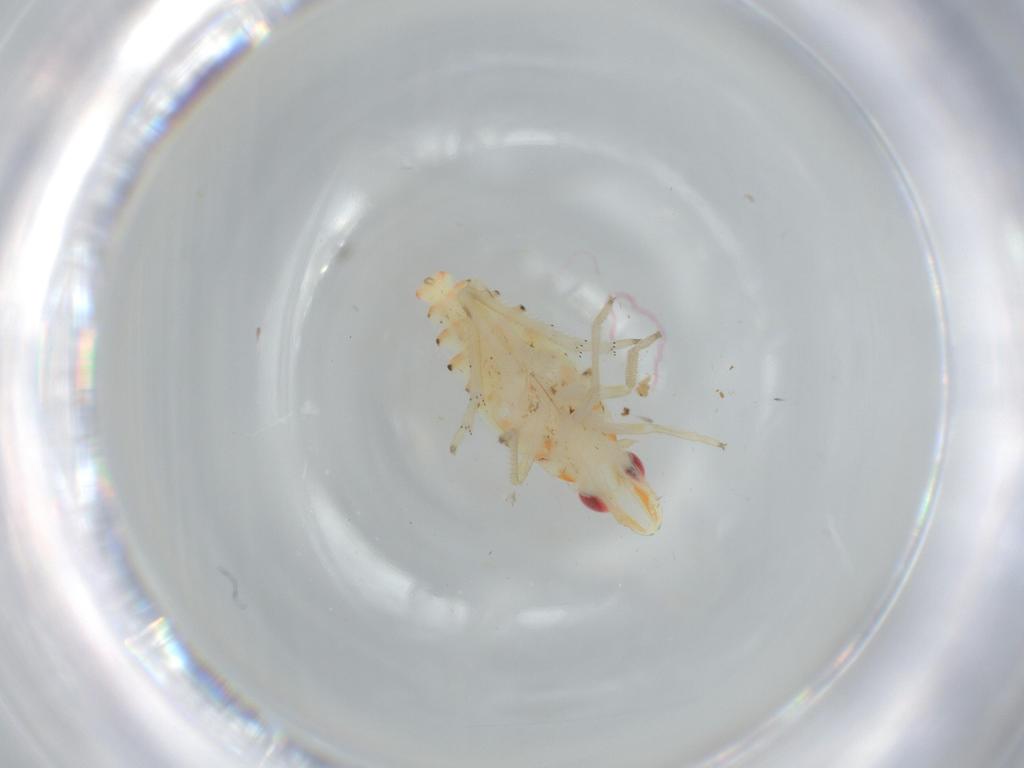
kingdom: Animalia
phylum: Arthropoda
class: Insecta
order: Hemiptera
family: Tropiduchidae
